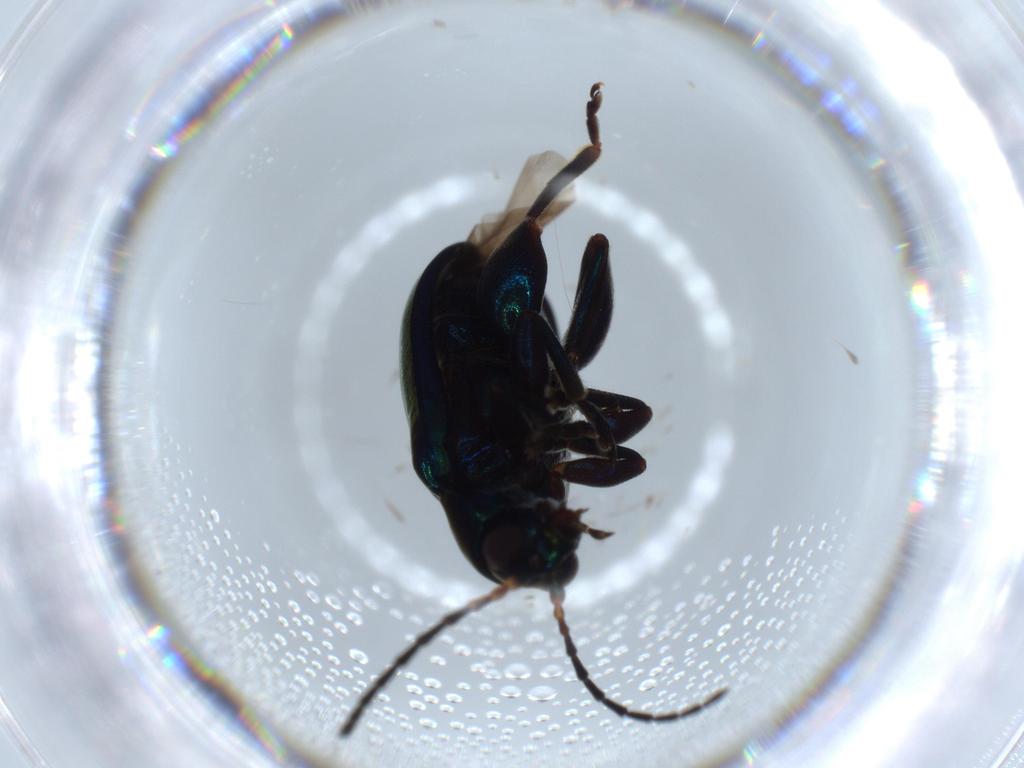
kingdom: Animalia
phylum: Arthropoda
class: Insecta
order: Coleoptera
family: Chrysomelidae
